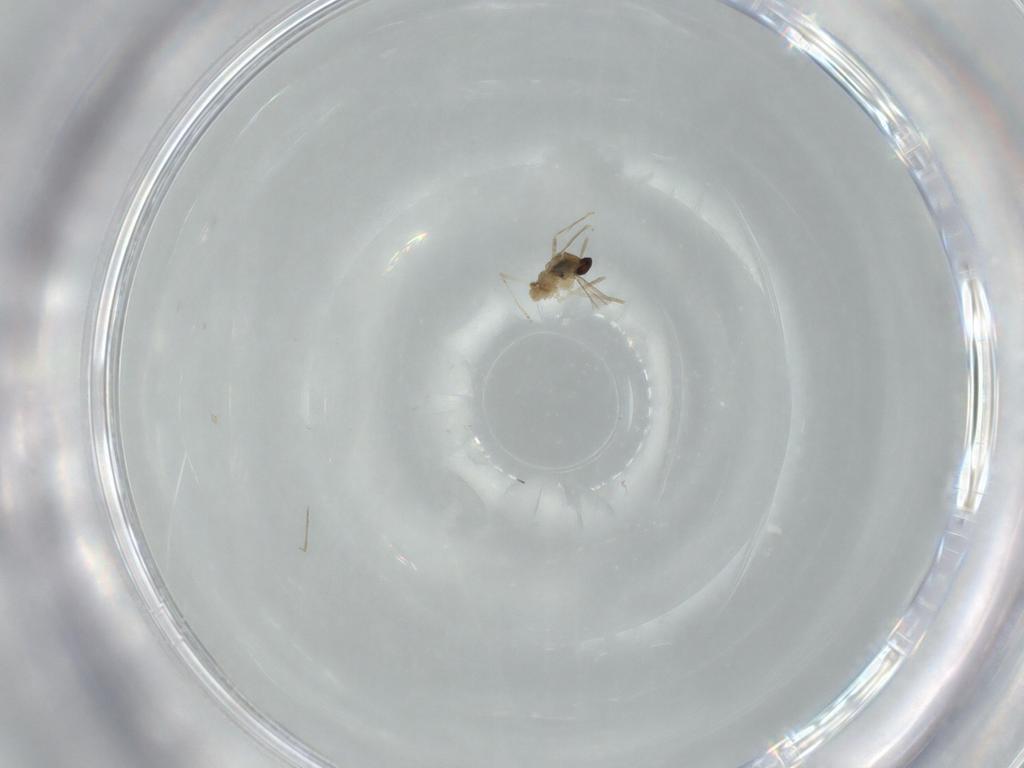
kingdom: Animalia
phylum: Arthropoda
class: Insecta
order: Diptera
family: Cecidomyiidae
